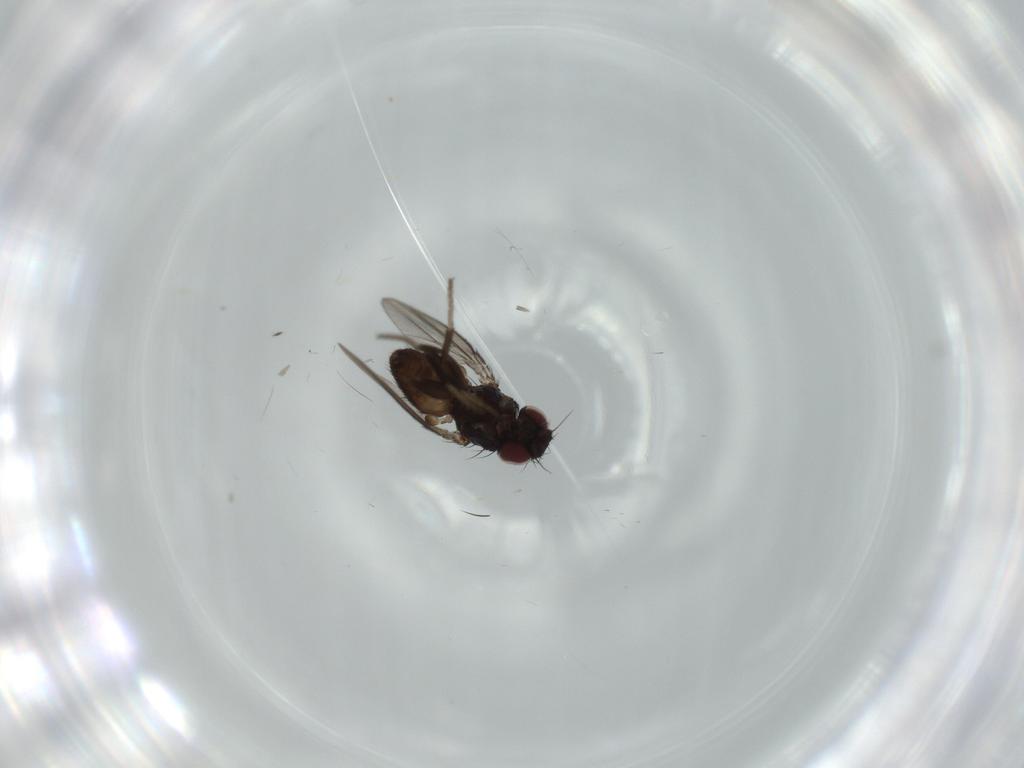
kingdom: Animalia
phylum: Arthropoda
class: Insecta
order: Diptera
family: Milichiidae
